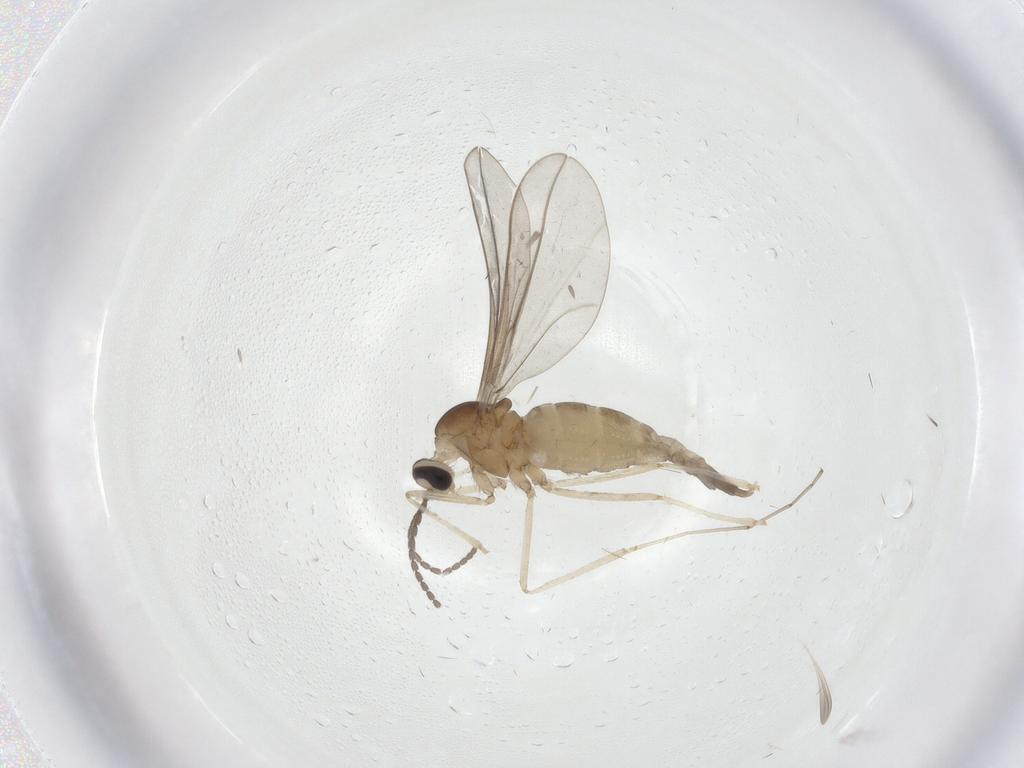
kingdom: Animalia
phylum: Arthropoda
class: Insecta
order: Diptera
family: Cecidomyiidae
